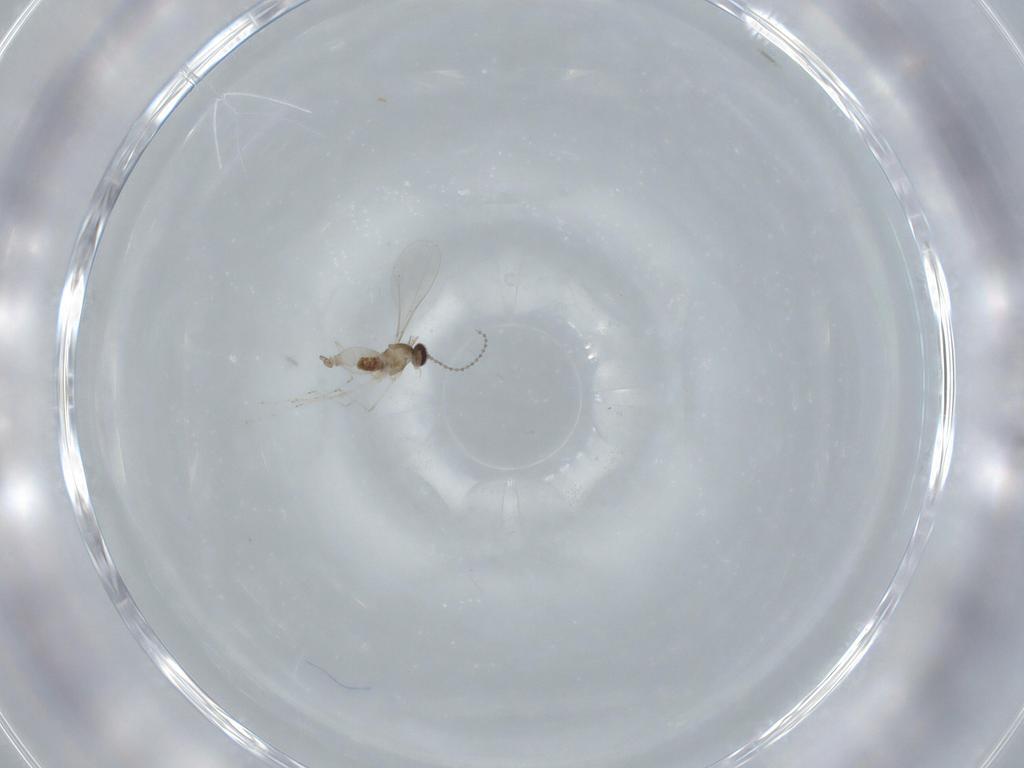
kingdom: Animalia
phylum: Arthropoda
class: Insecta
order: Diptera
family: Cecidomyiidae
